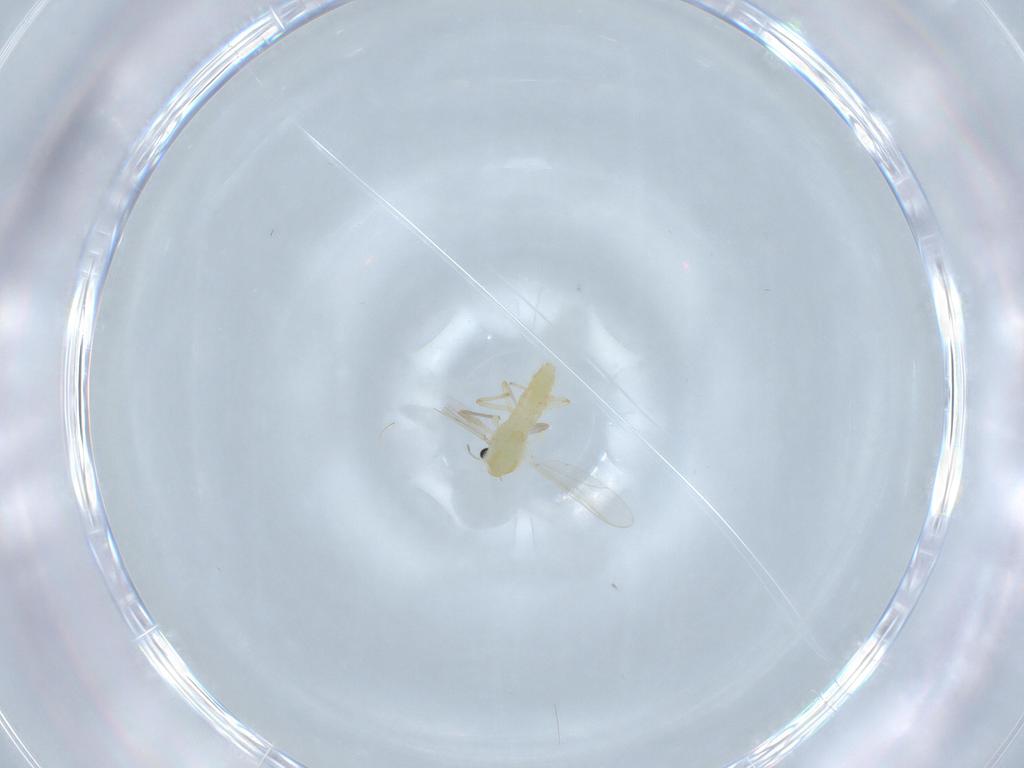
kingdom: Animalia
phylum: Arthropoda
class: Insecta
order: Diptera
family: Chironomidae
